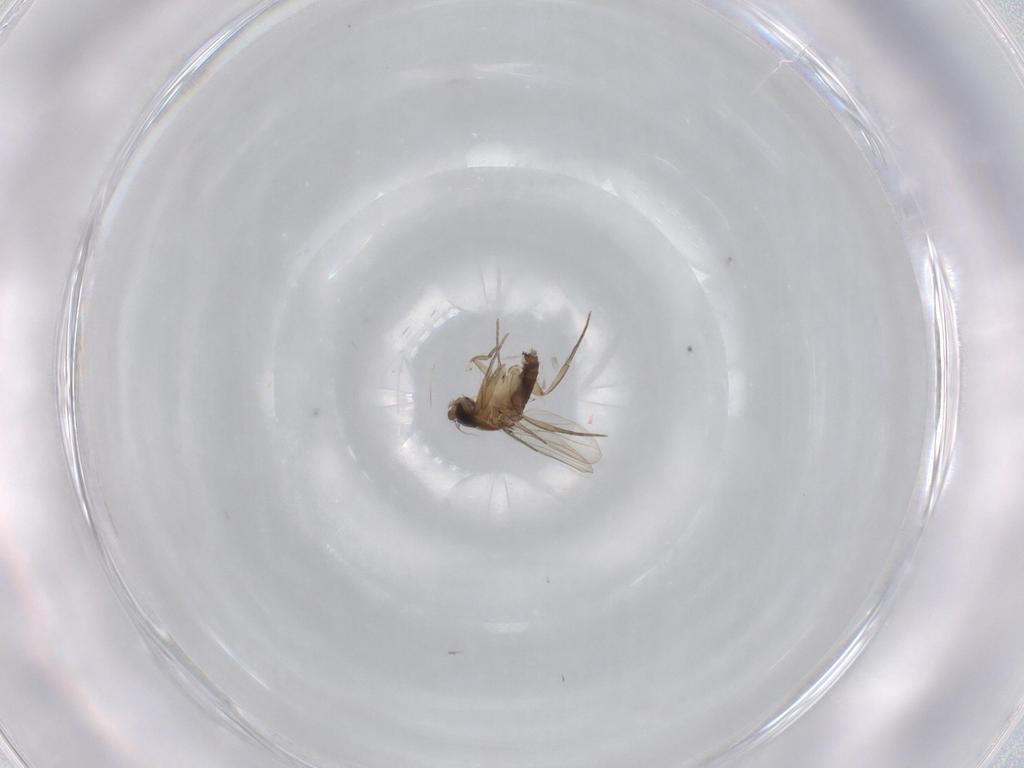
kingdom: Animalia
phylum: Arthropoda
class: Insecta
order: Diptera
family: Phoridae
